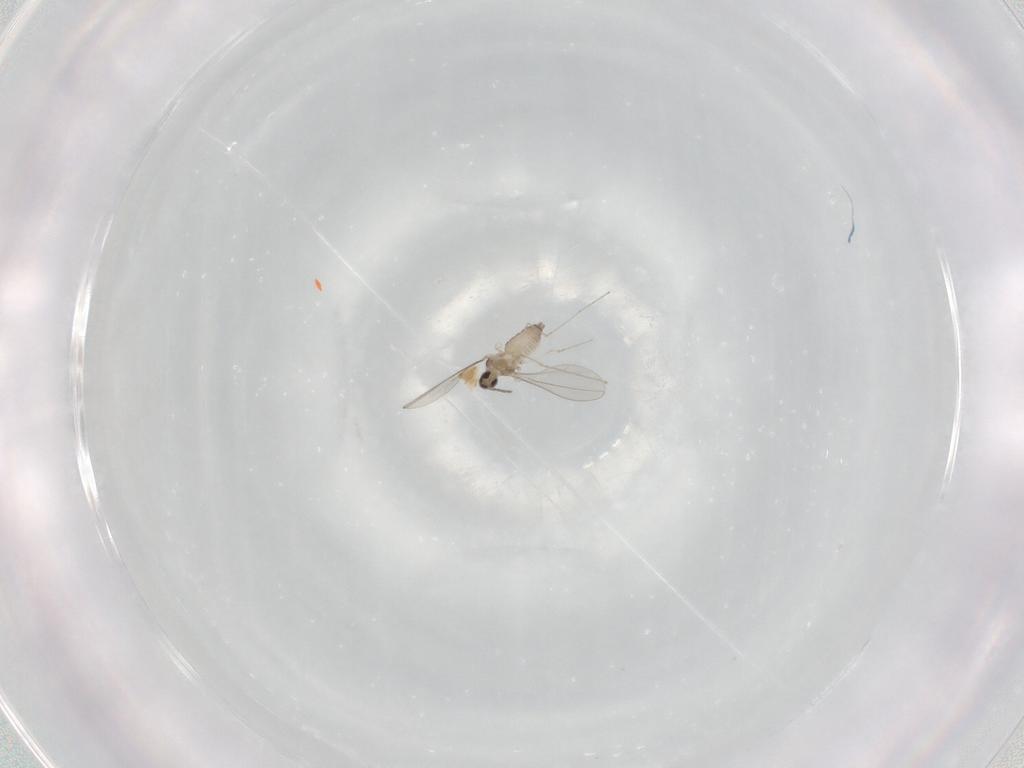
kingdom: Animalia
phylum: Arthropoda
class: Insecta
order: Diptera
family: Cecidomyiidae
